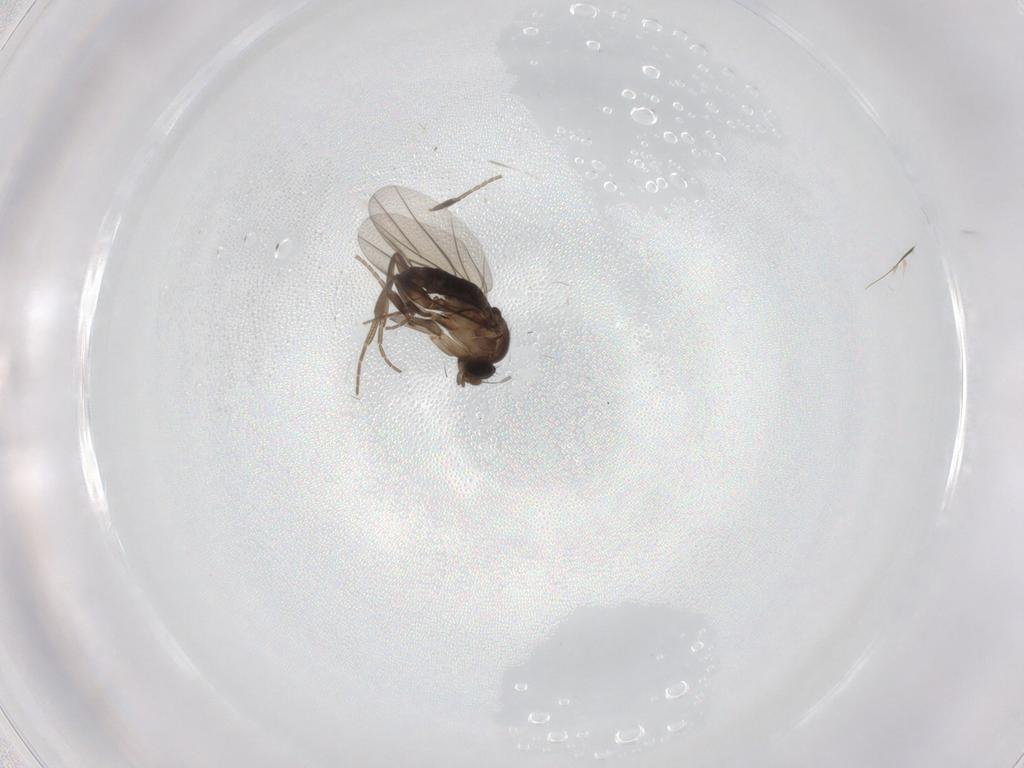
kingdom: Animalia
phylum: Arthropoda
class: Insecta
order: Diptera
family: Phoridae
